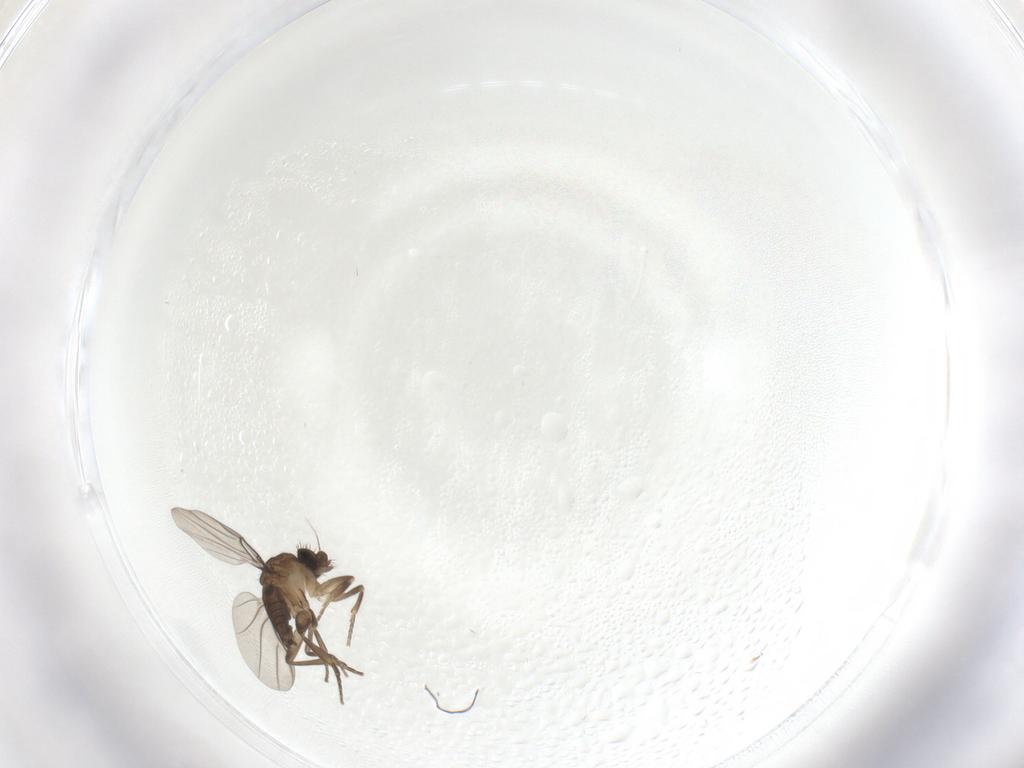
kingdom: Animalia
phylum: Arthropoda
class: Insecta
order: Diptera
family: Phoridae
